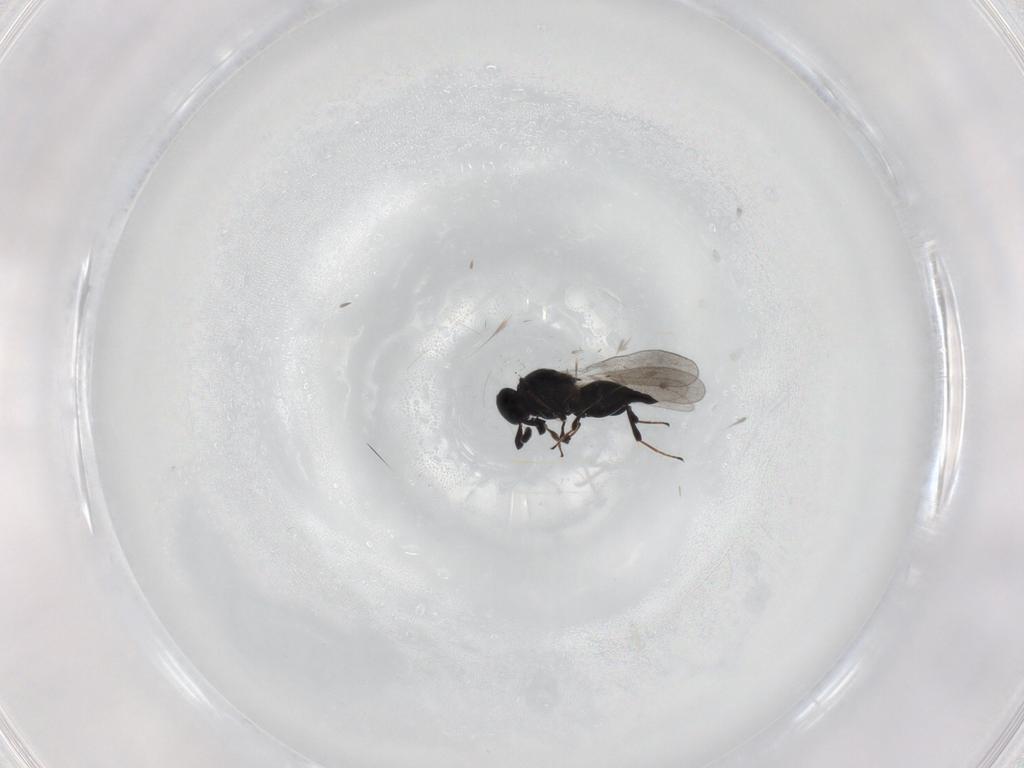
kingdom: Animalia
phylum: Arthropoda
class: Insecta
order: Hymenoptera
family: Platygastridae
